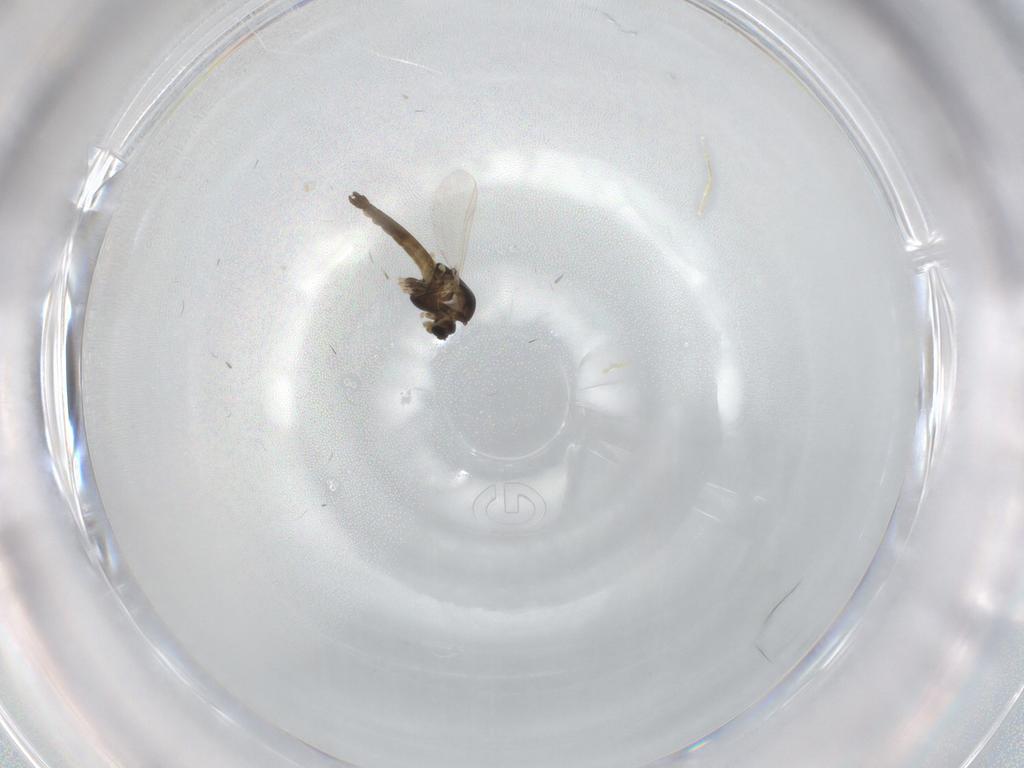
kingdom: Animalia
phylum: Arthropoda
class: Insecta
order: Diptera
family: Chironomidae
